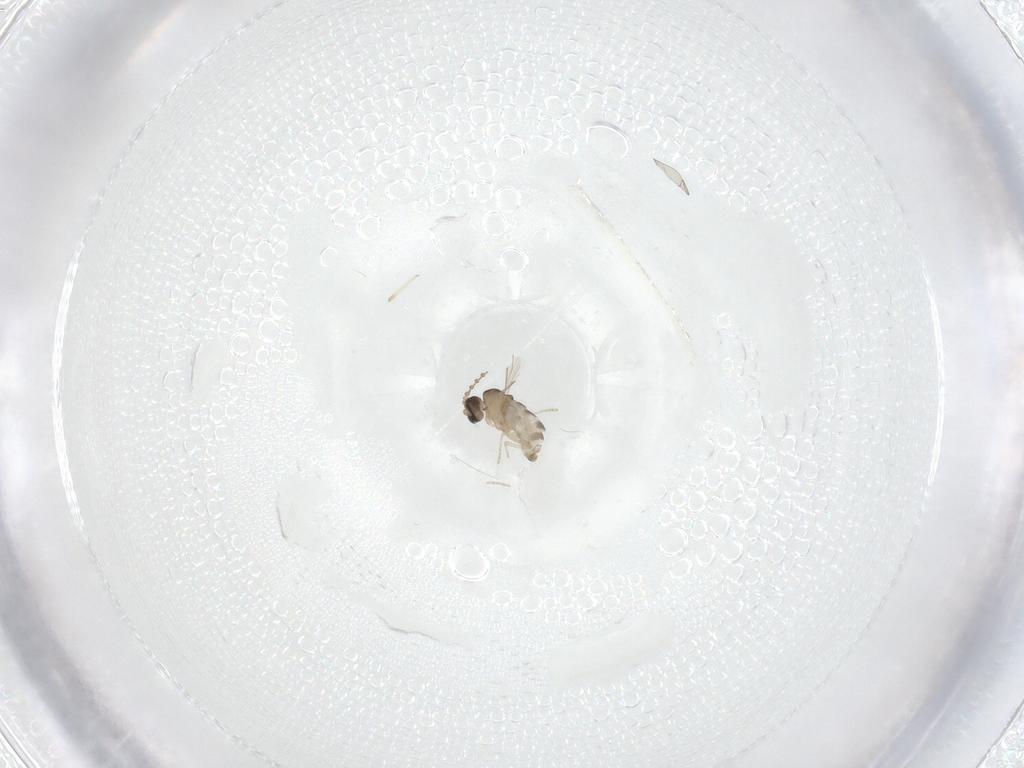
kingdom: Animalia
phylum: Arthropoda
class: Insecta
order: Diptera
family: Cecidomyiidae
